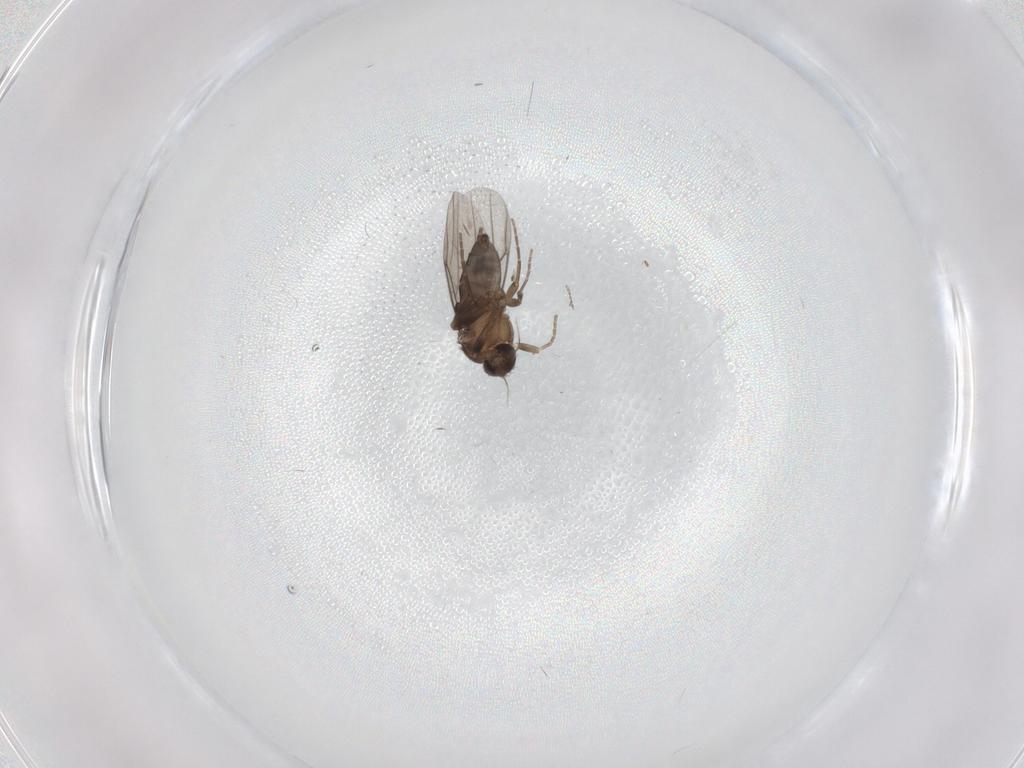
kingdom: Animalia
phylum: Arthropoda
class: Insecta
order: Diptera
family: Phoridae
